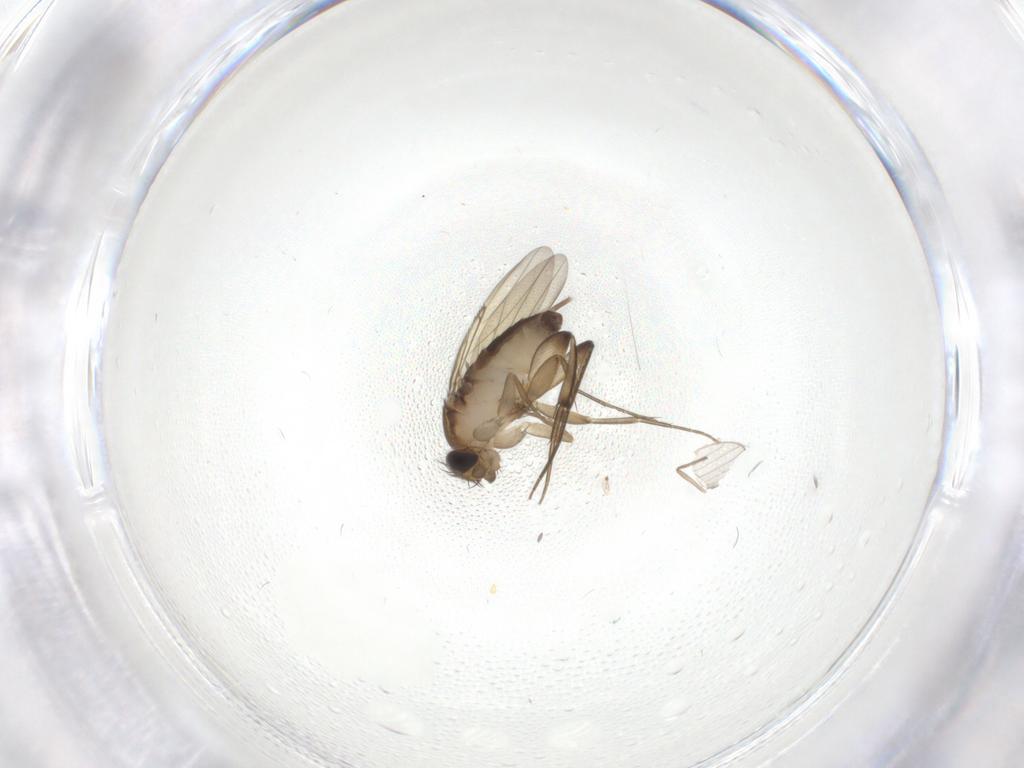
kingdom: Animalia
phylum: Arthropoda
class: Insecta
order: Diptera
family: Phoridae
